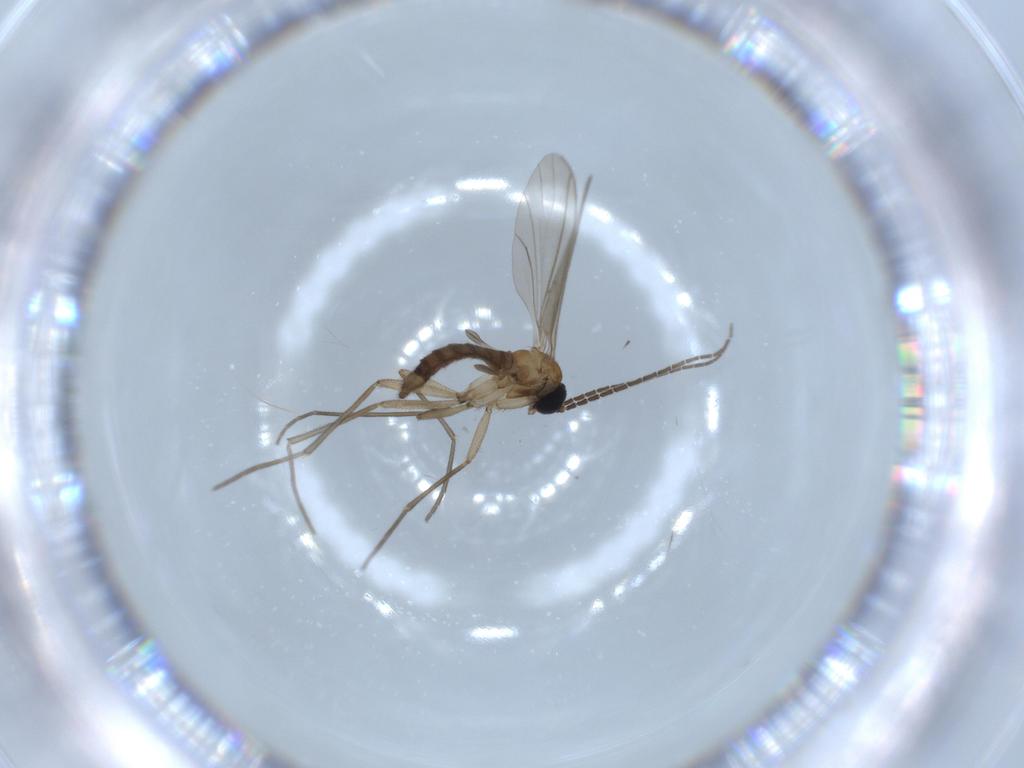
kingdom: Animalia
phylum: Arthropoda
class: Insecta
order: Diptera
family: Sciaridae
